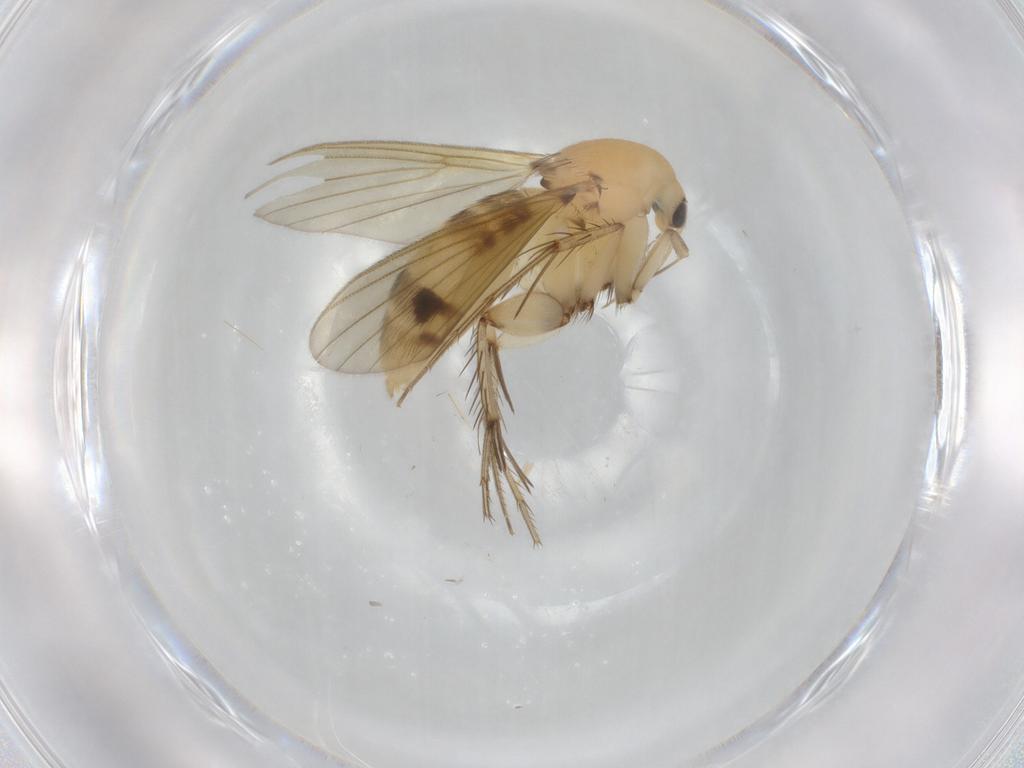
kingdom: Animalia
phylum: Arthropoda
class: Insecta
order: Diptera
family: Mycetophilidae
